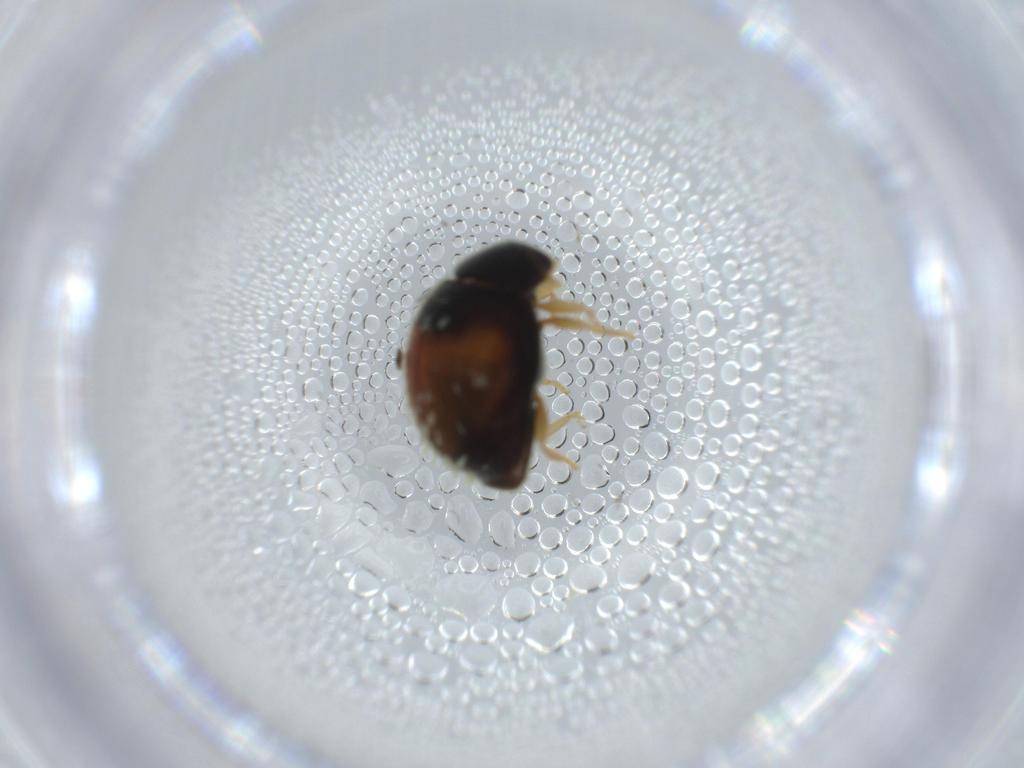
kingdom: Animalia
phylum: Arthropoda
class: Insecta
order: Coleoptera
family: Coccinellidae
